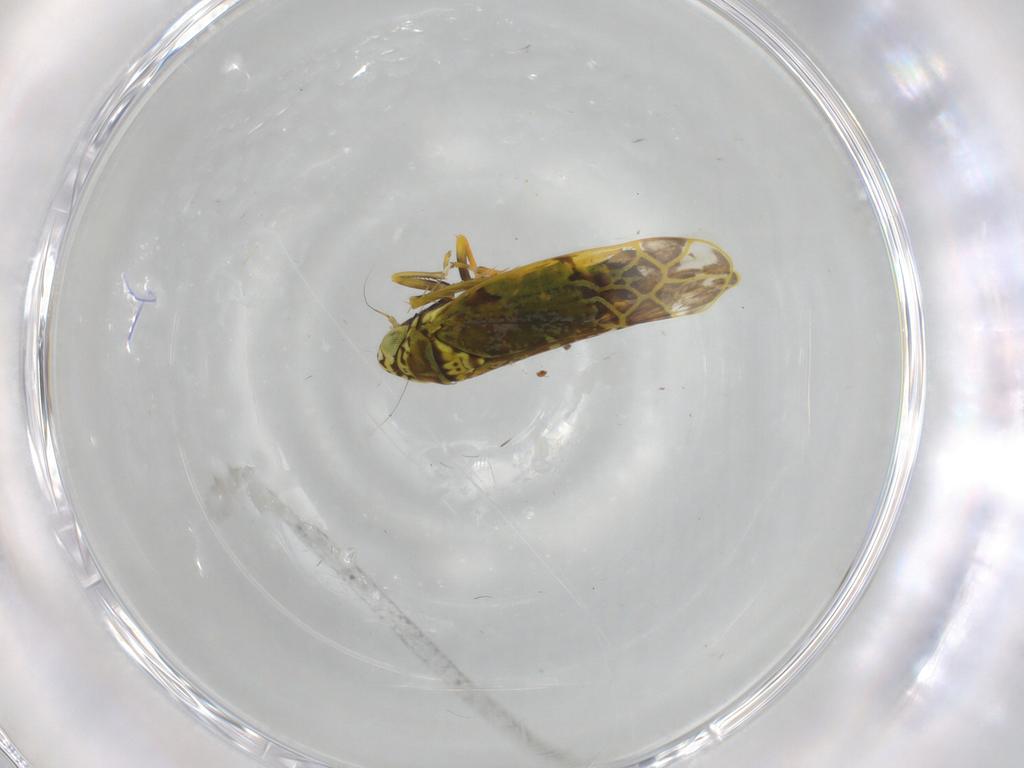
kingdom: Animalia
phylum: Arthropoda
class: Insecta
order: Hemiptera
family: Cicadellidae
